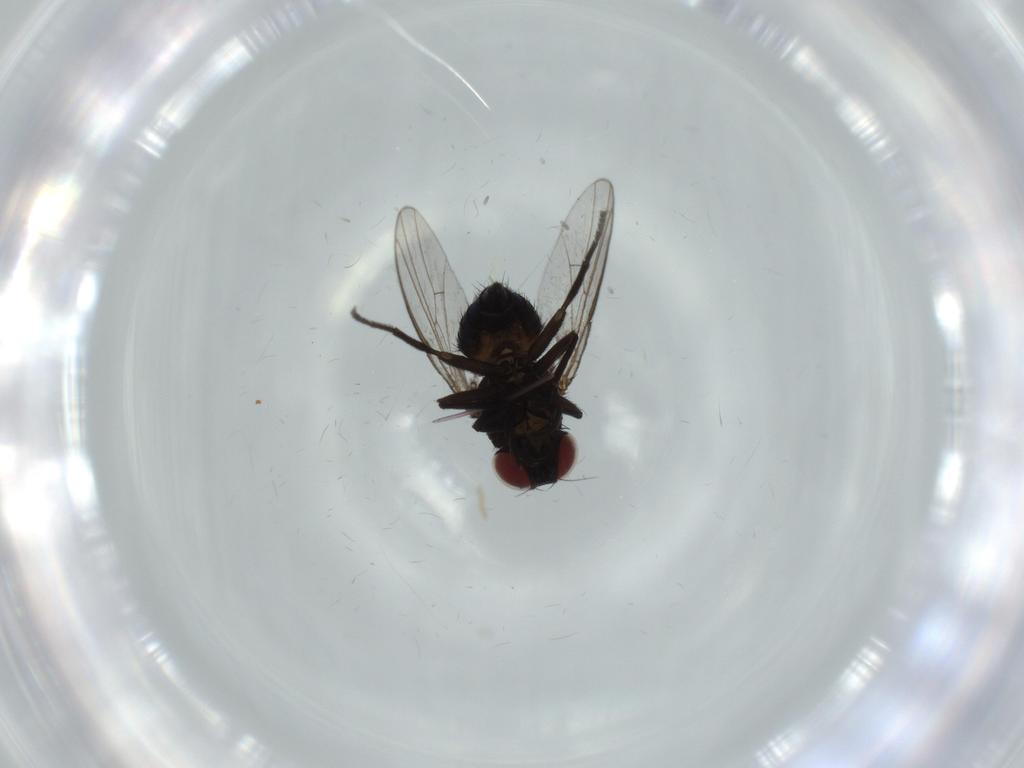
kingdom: Animalia
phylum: Arthropoda
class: Insecta
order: Diptera
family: Agromyzidae
